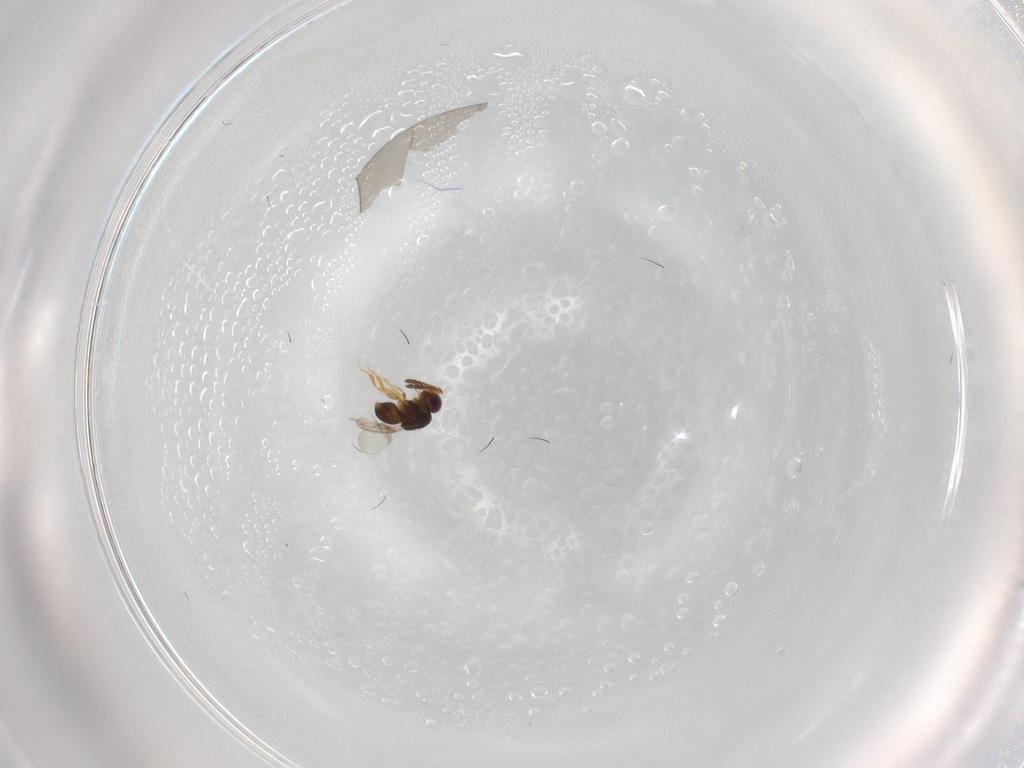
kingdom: Animalia
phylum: Arthropoda
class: Insecta
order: Hymenoptera
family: Ichneumonidae
